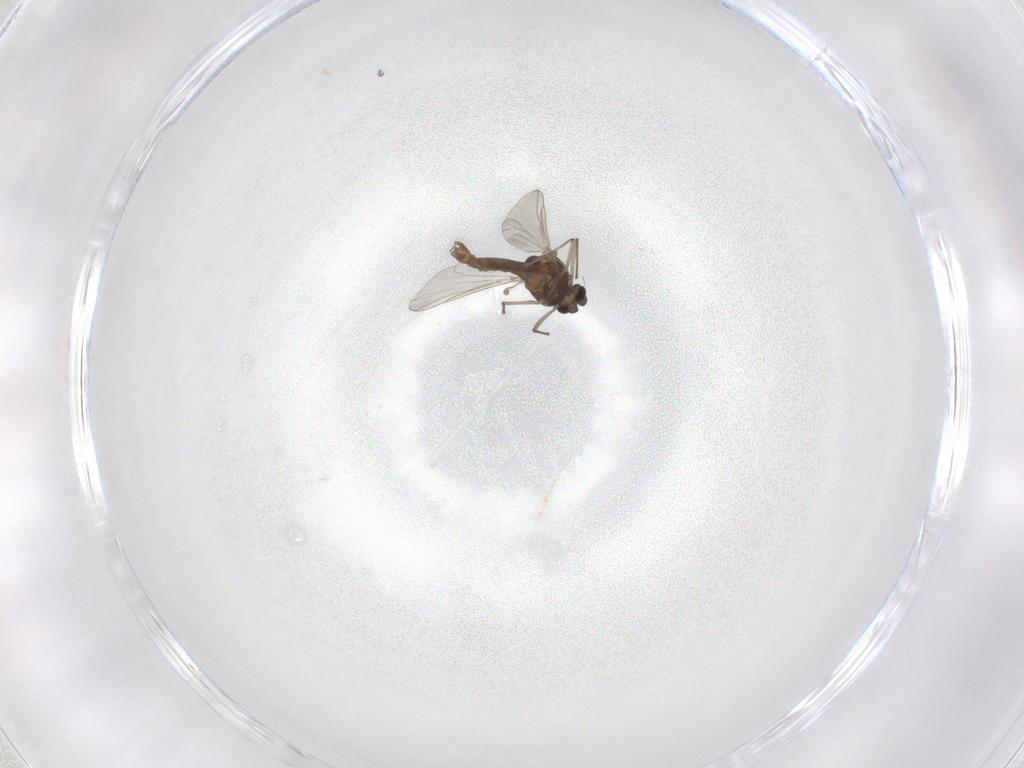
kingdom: Animalia
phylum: Arthropoda
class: Insecta
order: Diptera
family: Chironomidae
